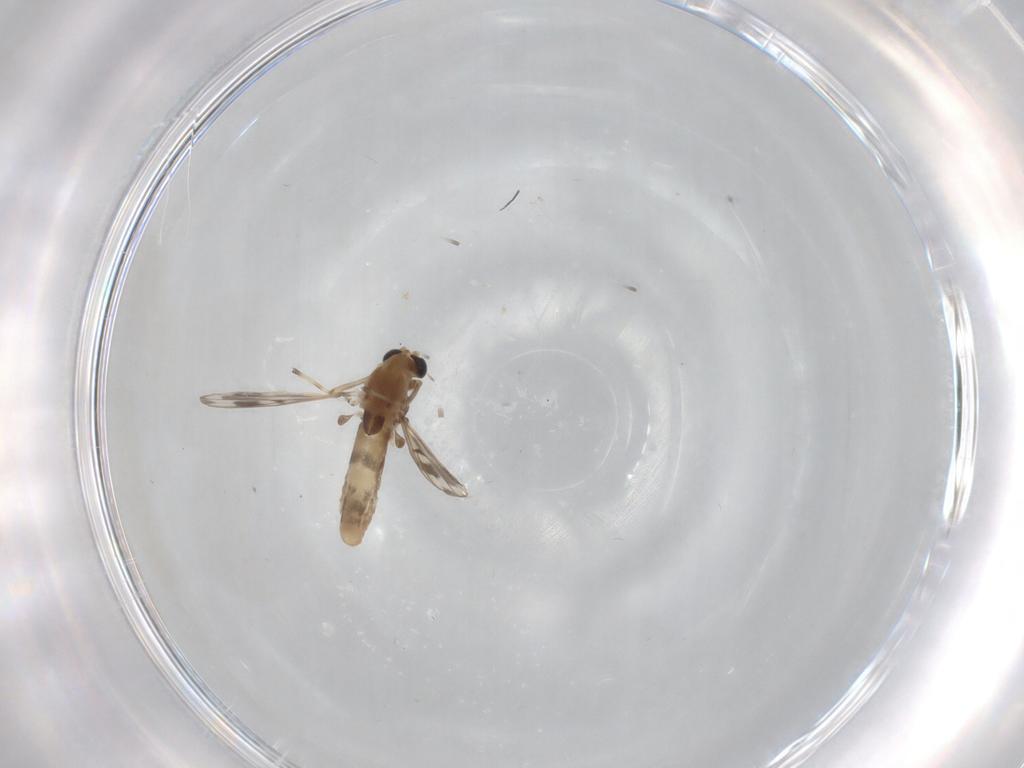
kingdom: Animalia
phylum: Arthropoda
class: Insecta
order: Diptera
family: Chironomidae
